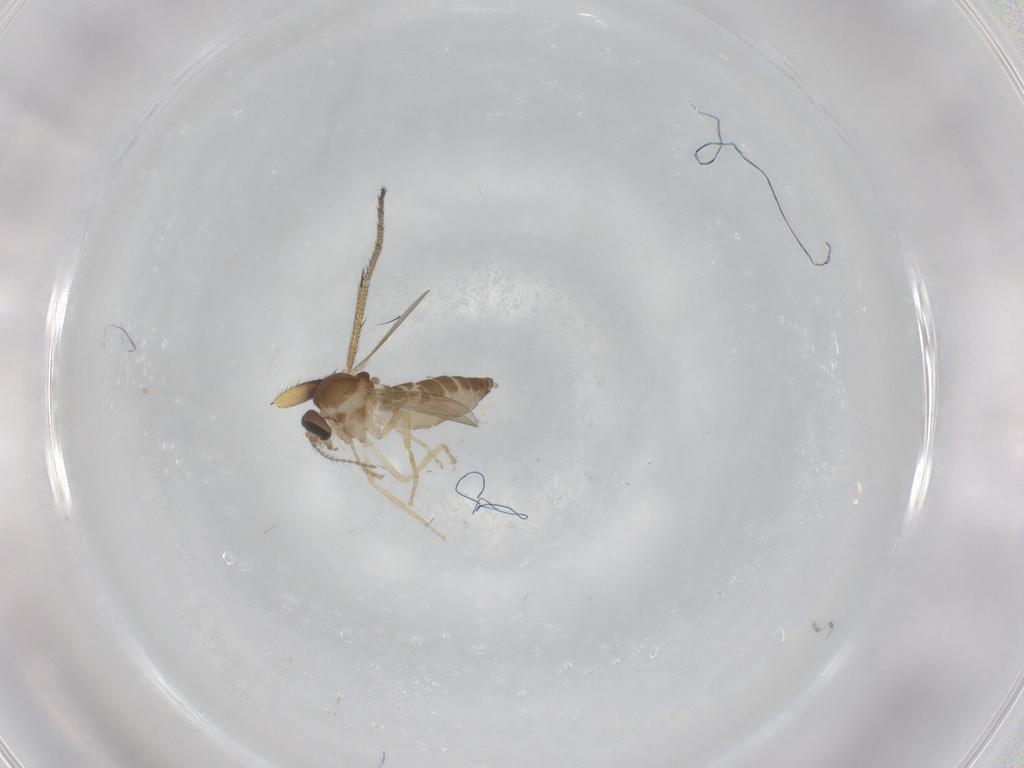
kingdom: Animalia
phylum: Arthropoda
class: Insecta
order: Diptera
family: Ceratopogonidae
